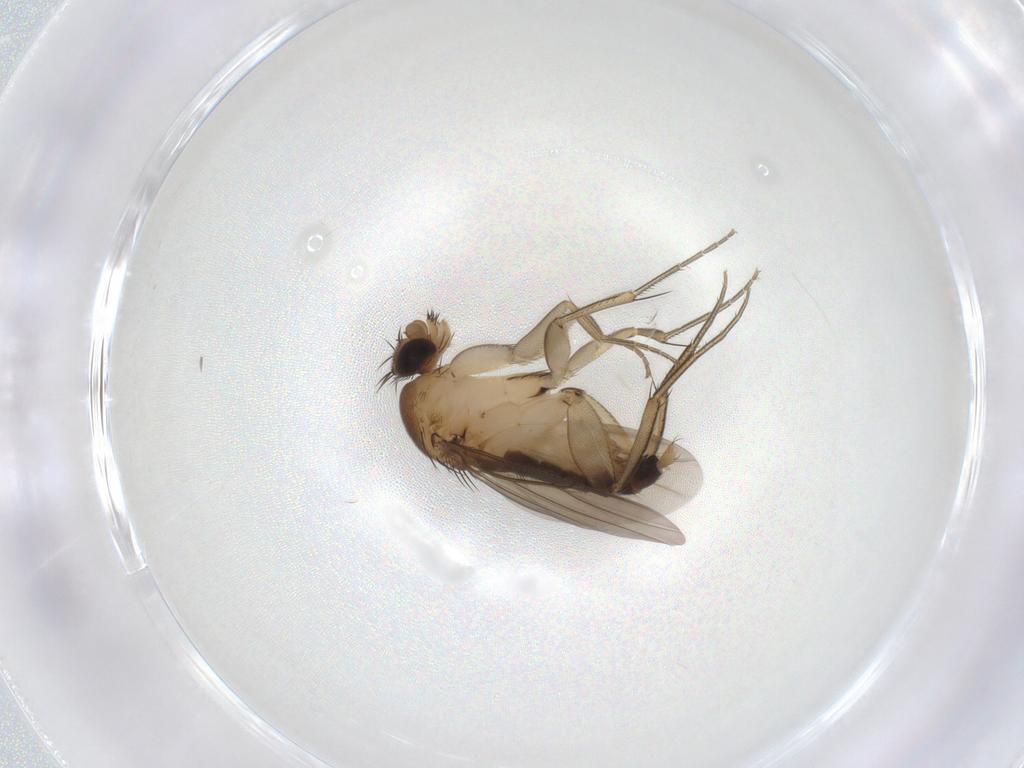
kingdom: Animalia
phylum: Arthropoda
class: Insecta
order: Diptera
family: Phoridae
